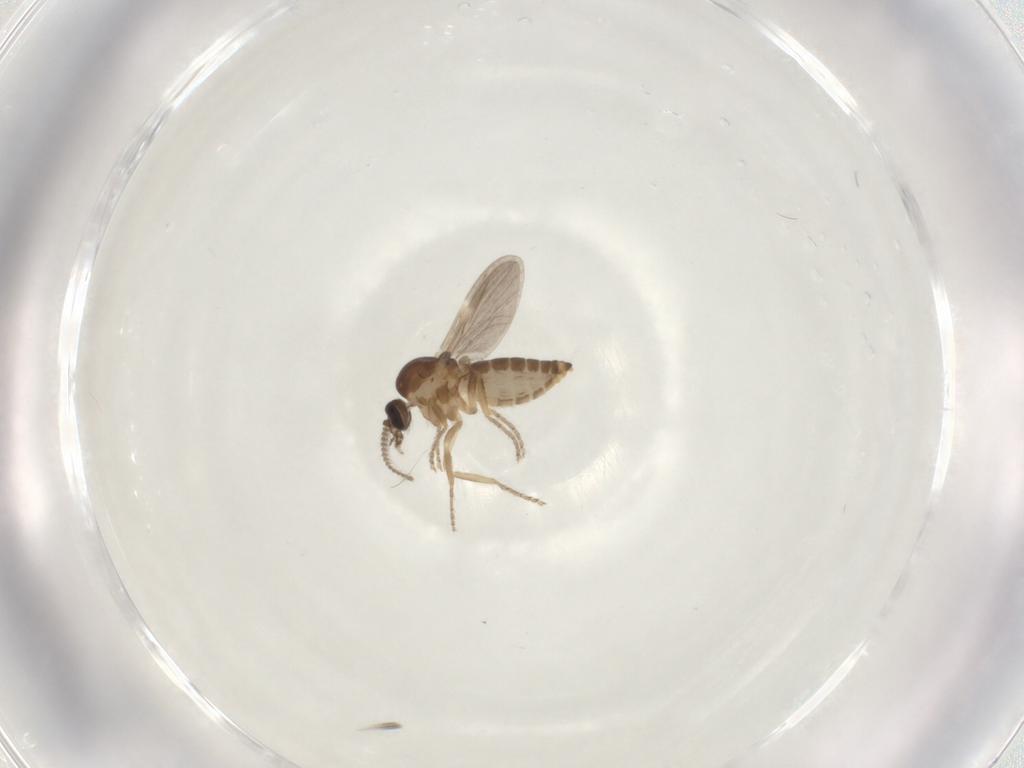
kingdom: Animalia
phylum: Arthropoda
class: Insecta
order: Diptera
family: Ceratopogonidae
